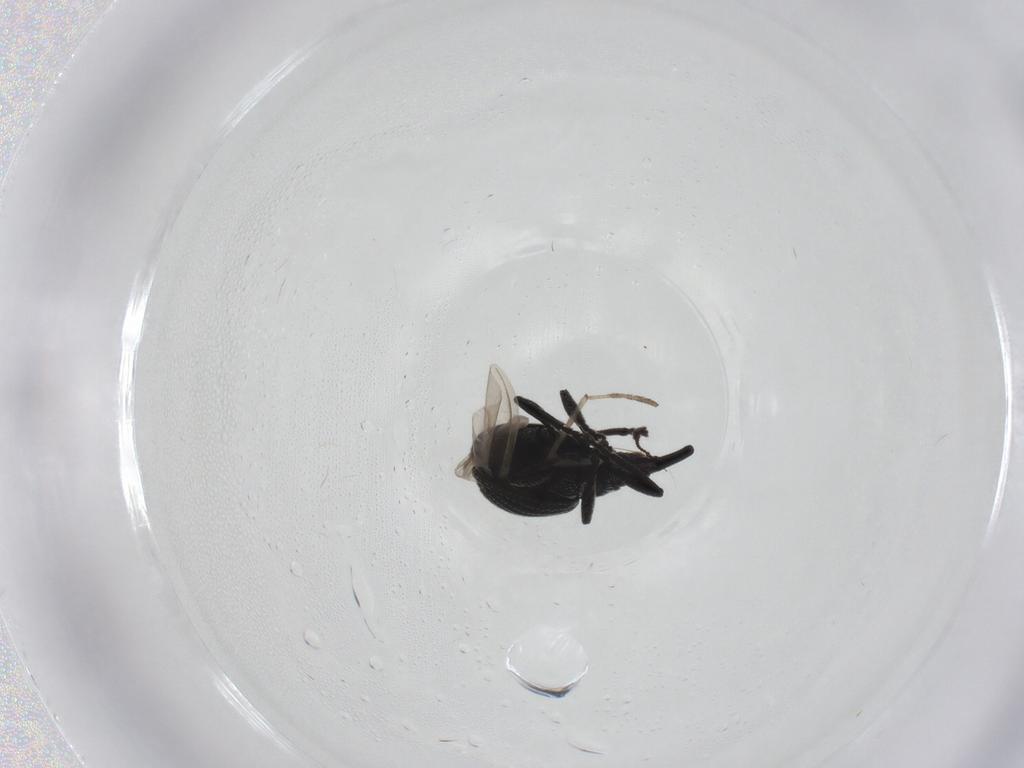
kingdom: Animalia
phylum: Arthropoda
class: Insecta
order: Coleoptera
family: Brentidae
